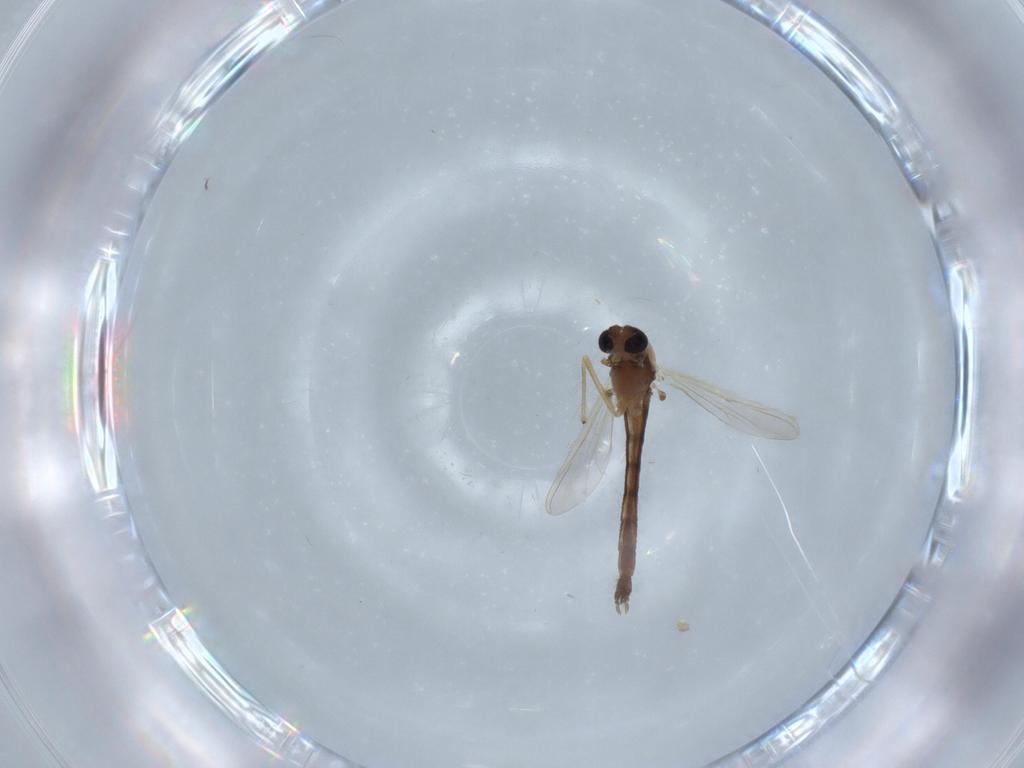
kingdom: Animalia
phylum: Arthropoda
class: Insecta
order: Diptera
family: Chironomidae
